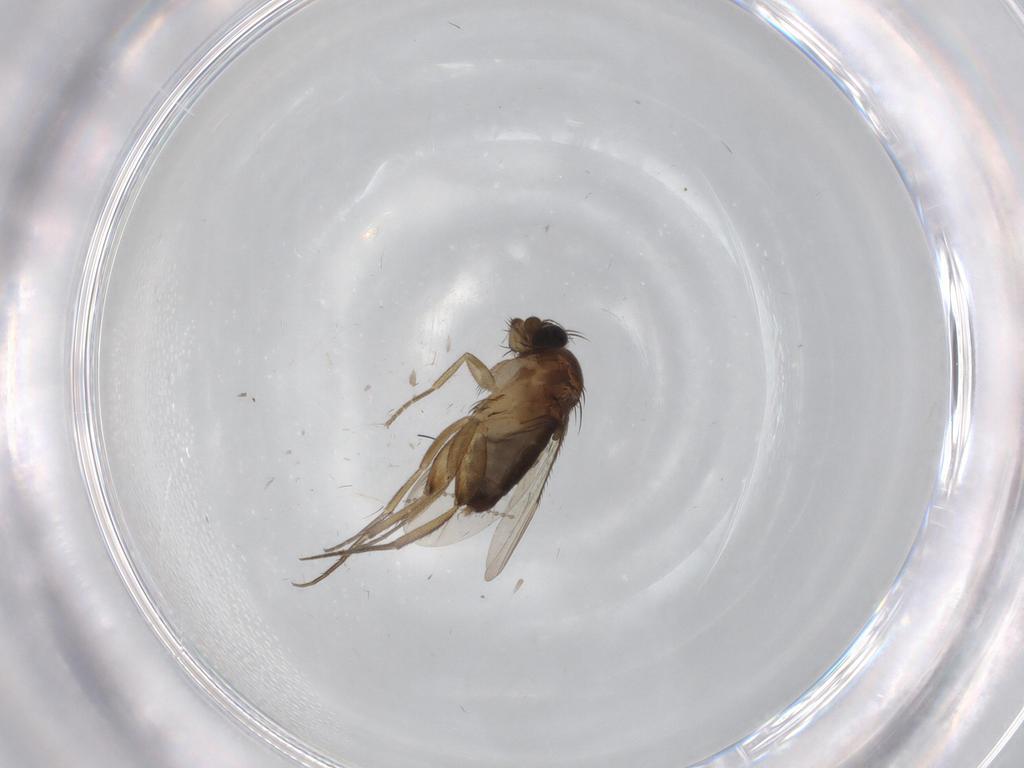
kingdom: Animalia
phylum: Arthropoda
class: Insecta
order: Diptera
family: Phoridae
